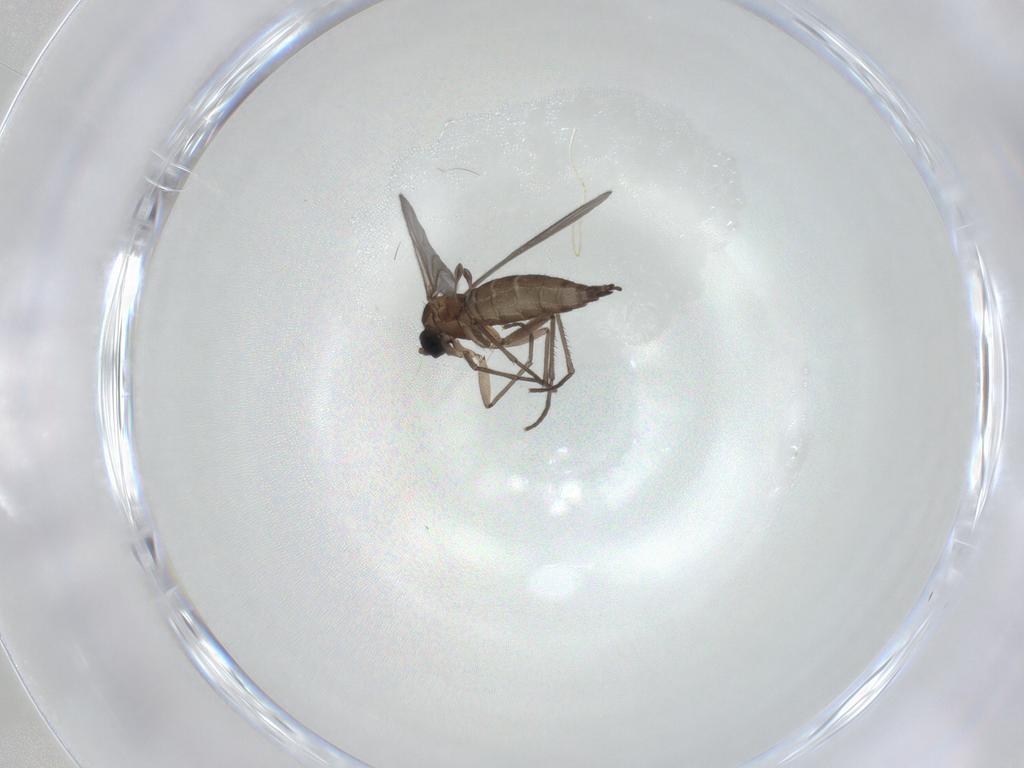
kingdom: Animalia
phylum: Arthropoda
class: Insecta
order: Diptera
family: Sciaridae
